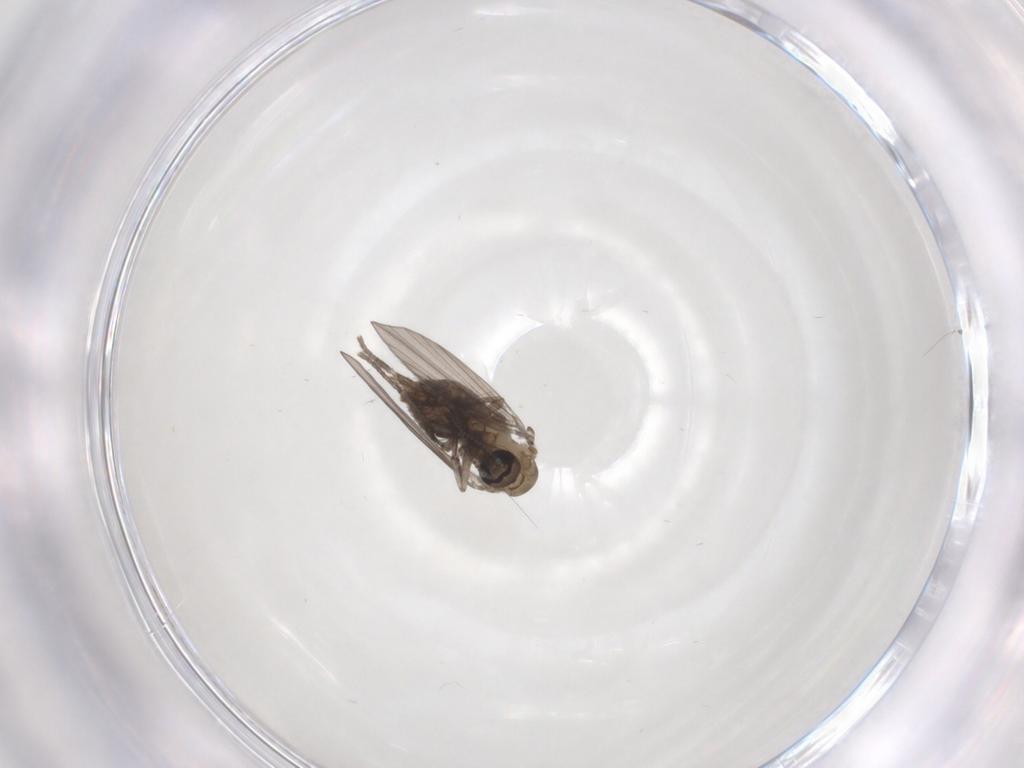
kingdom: Animalia
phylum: Arthropoda
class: Insecta
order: Diptera
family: Psychodidae
